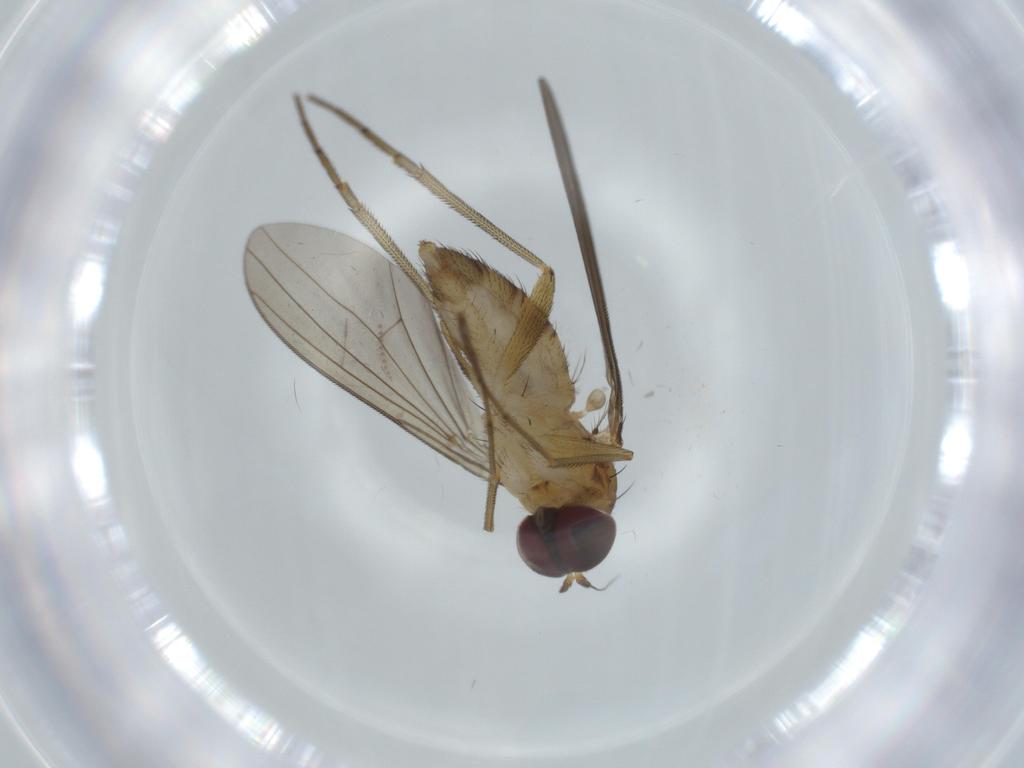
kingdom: Animalia
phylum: Arthropoda
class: Insecta
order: Diptera
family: Dolichopodidae
